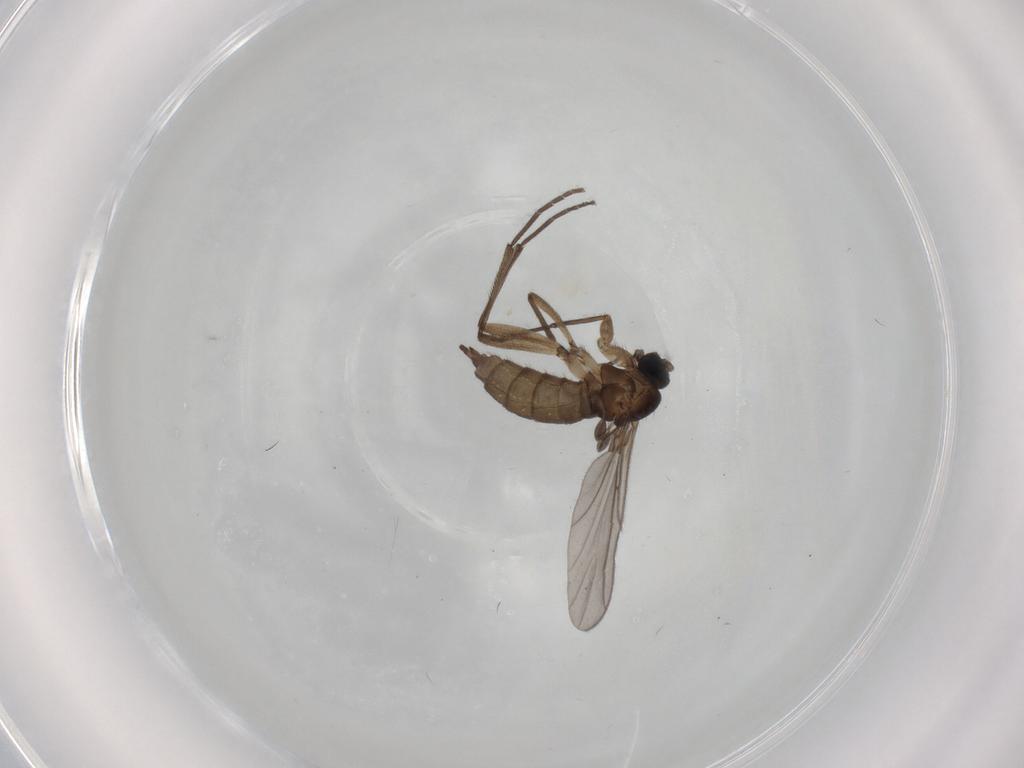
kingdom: Animalia
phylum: Arthropoda
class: Insecta
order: Diptera
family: Sciaridae
